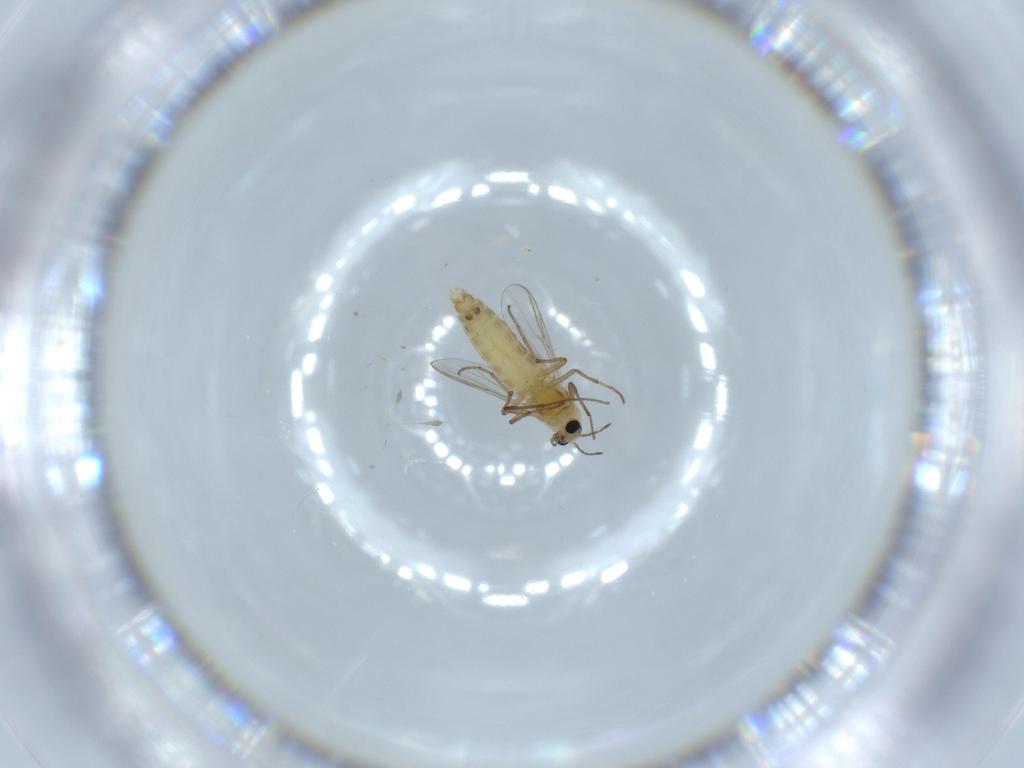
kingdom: Animalia
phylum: Arthropoda
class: Insecta
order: Diptera
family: Chironomidae
